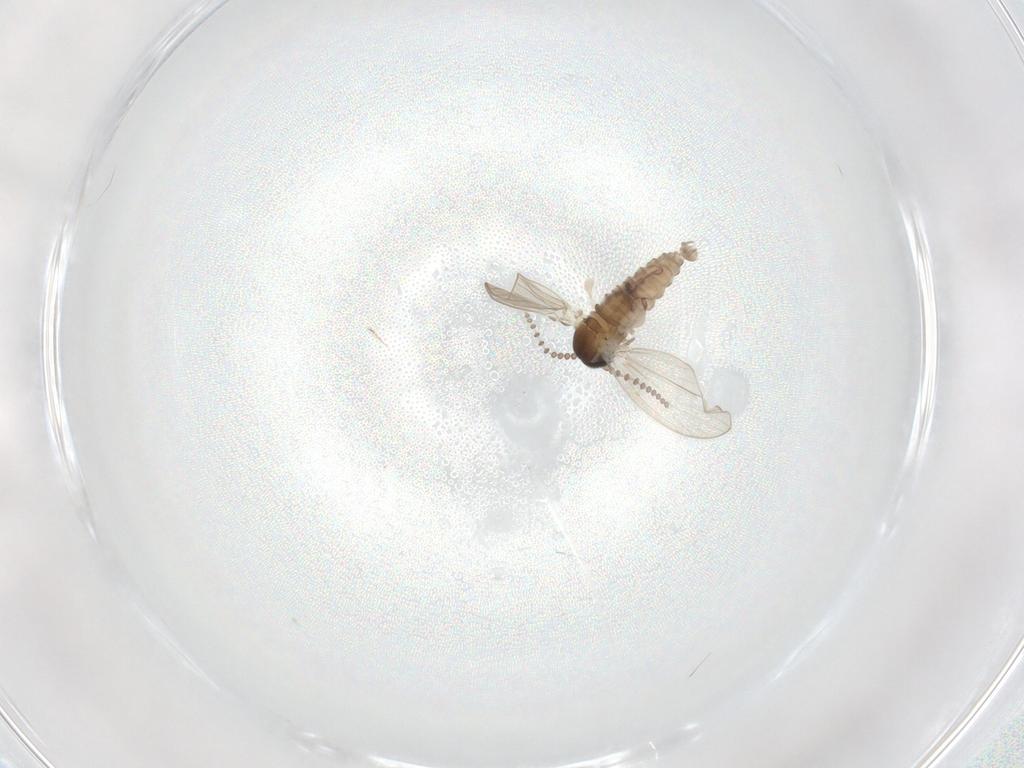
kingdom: Animalia
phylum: Arthropoda
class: Insecta
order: Diptera
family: Psychodidae
